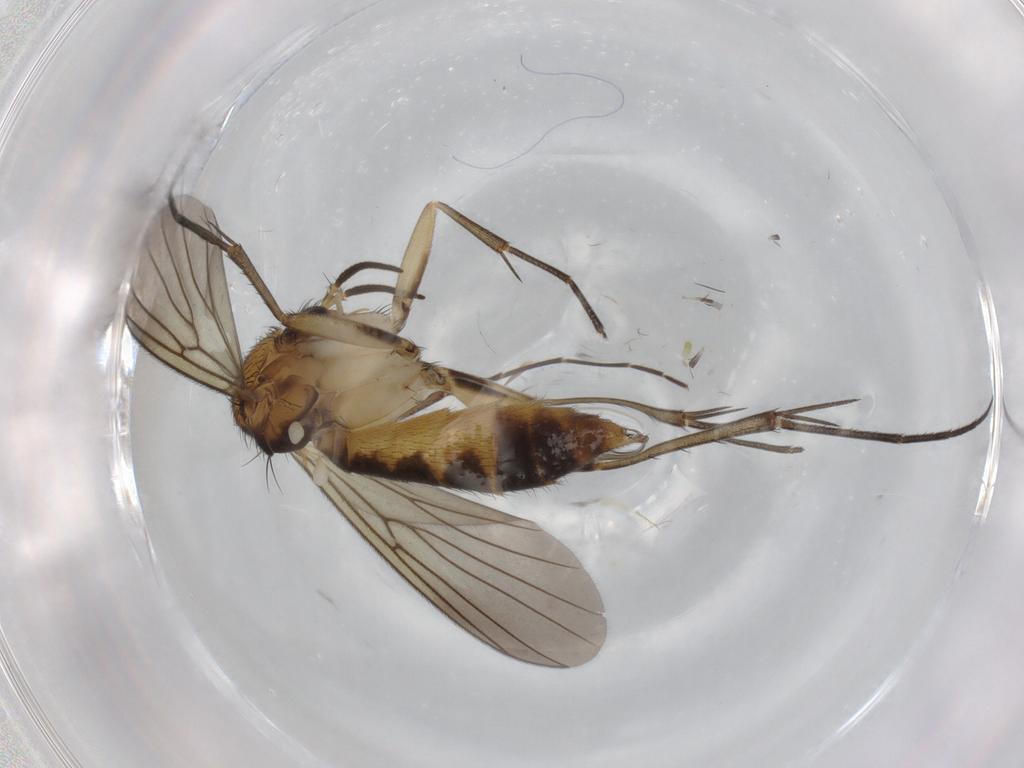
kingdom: Animalia
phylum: Arthropoda
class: Insecta
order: Diptera
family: Mycetophilidae
